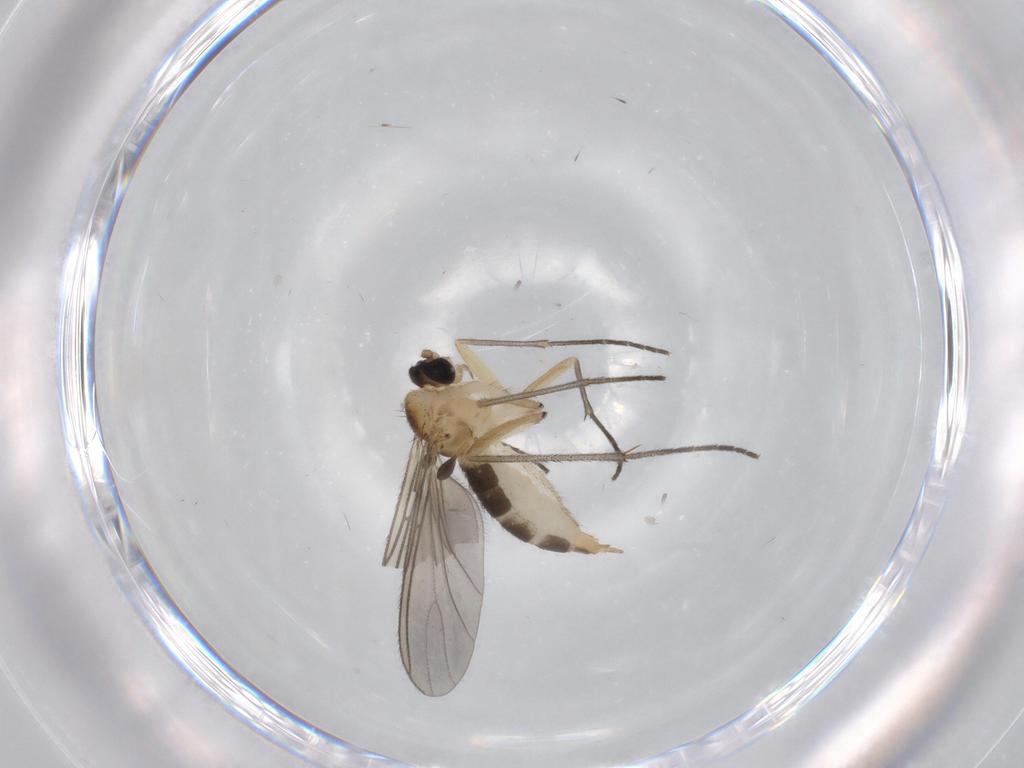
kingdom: Animalia
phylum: Arthropoda
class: Insecta
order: Diptera
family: Sciaridae
